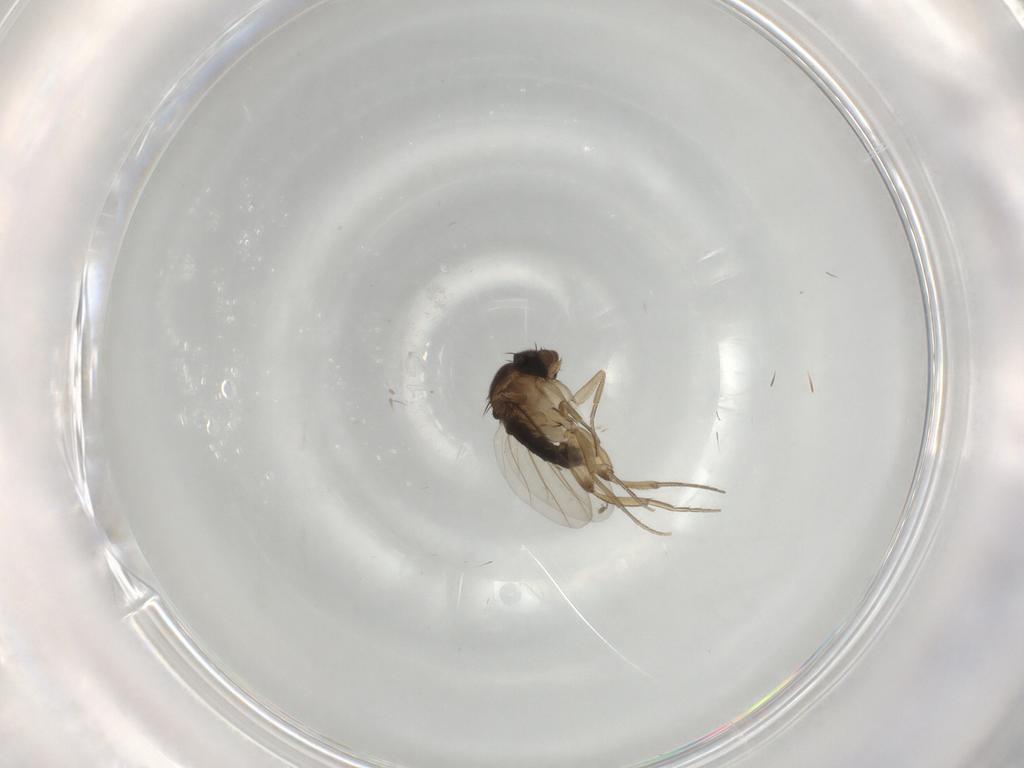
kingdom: Animalia
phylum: Arthropoda
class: Insecta
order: Diptera
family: Phoridae
